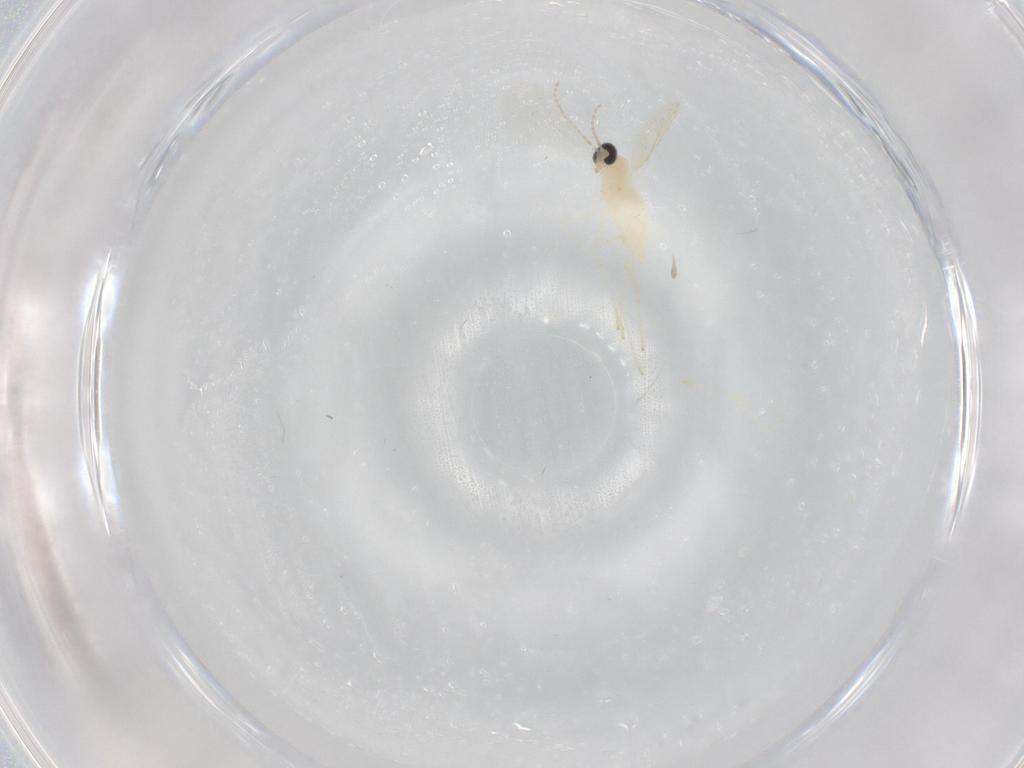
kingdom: Animalia
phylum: Arthropoda
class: Insecta
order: Diptera
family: Cecidomyiidae
